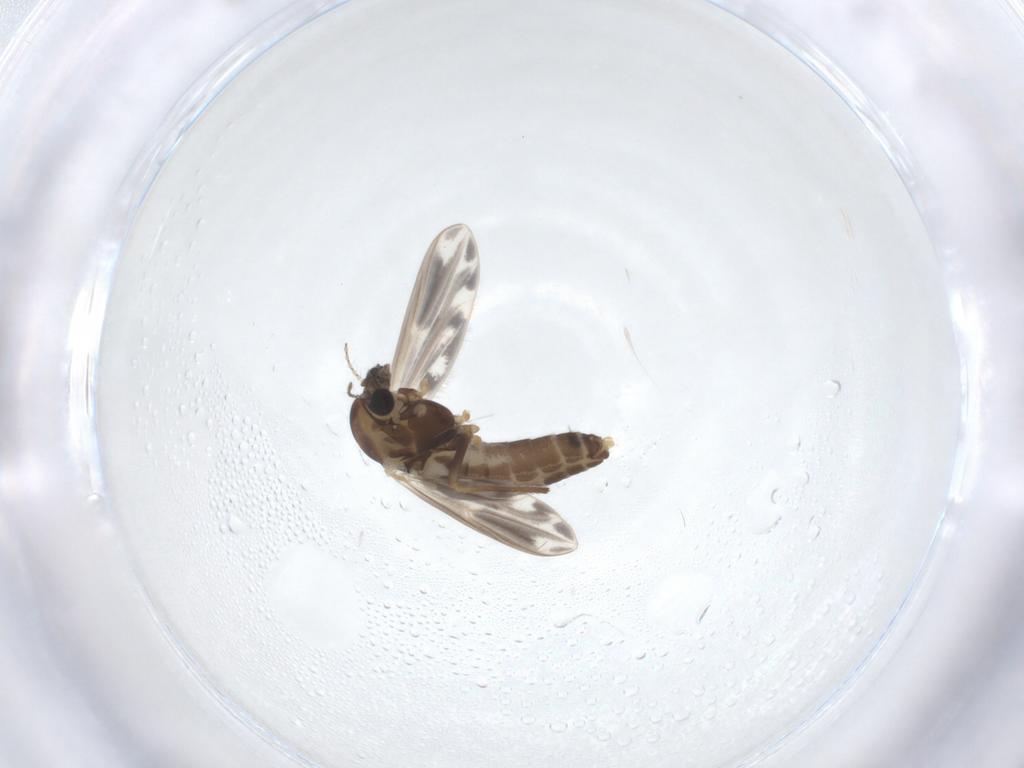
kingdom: Animalia
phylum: Arthropoda
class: Insecta
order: Diptera
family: Chironomidae
